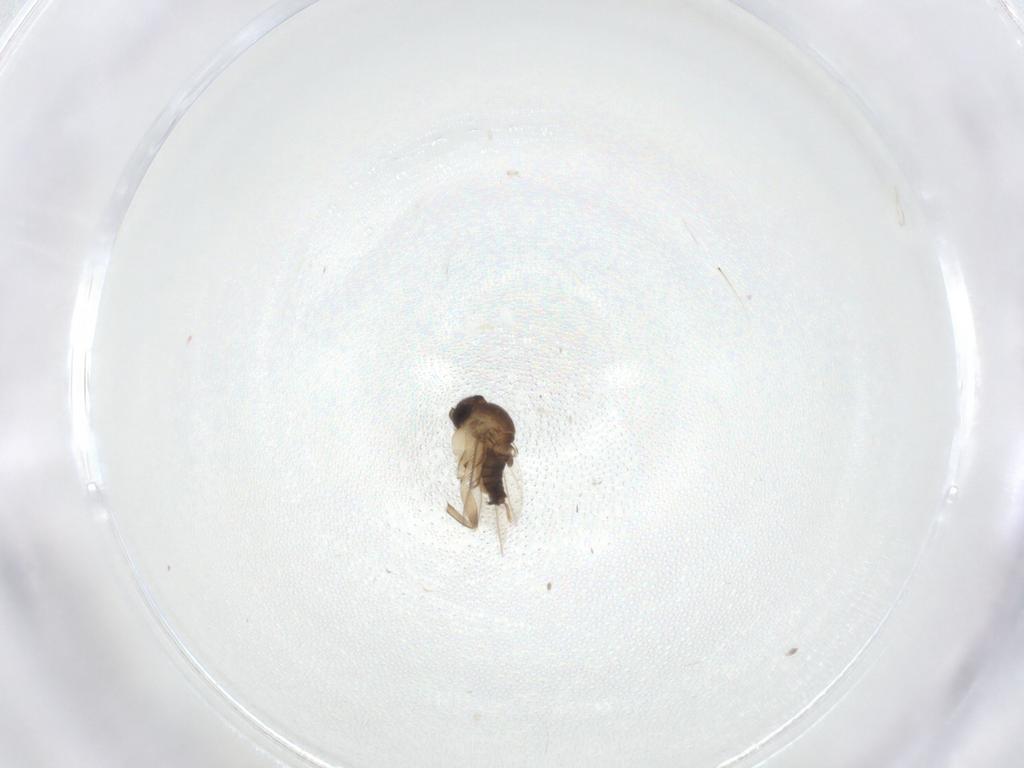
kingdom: Animalia
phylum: Arthropoda
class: Insecta
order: Diptera
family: Phoridae
